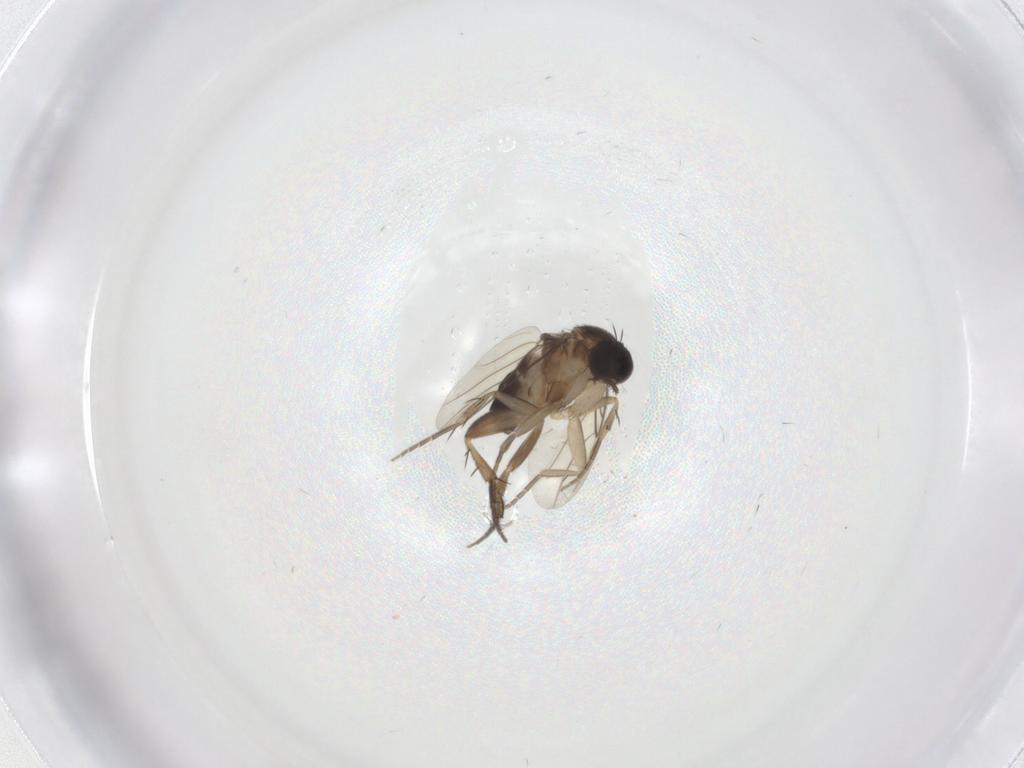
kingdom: Animalia
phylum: Arthropoda
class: Insecta
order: Diptera
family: Phoridae
